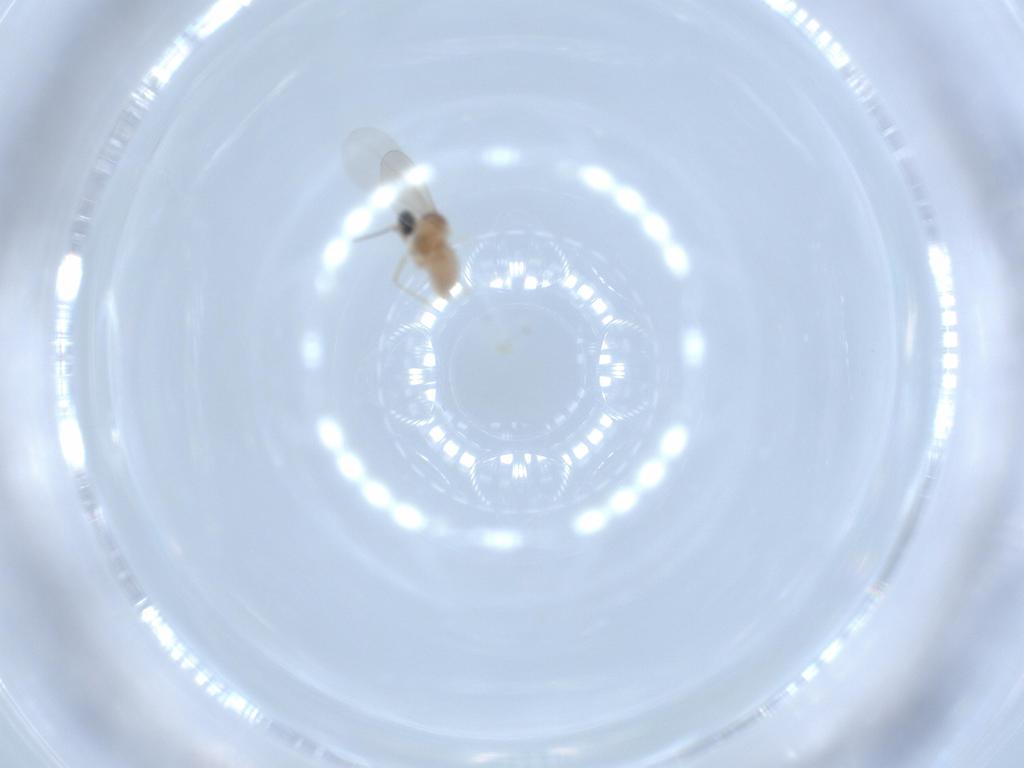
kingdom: Animalia
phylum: Arthropoda
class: Insecta
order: Diptera
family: Cecidomyiidae
